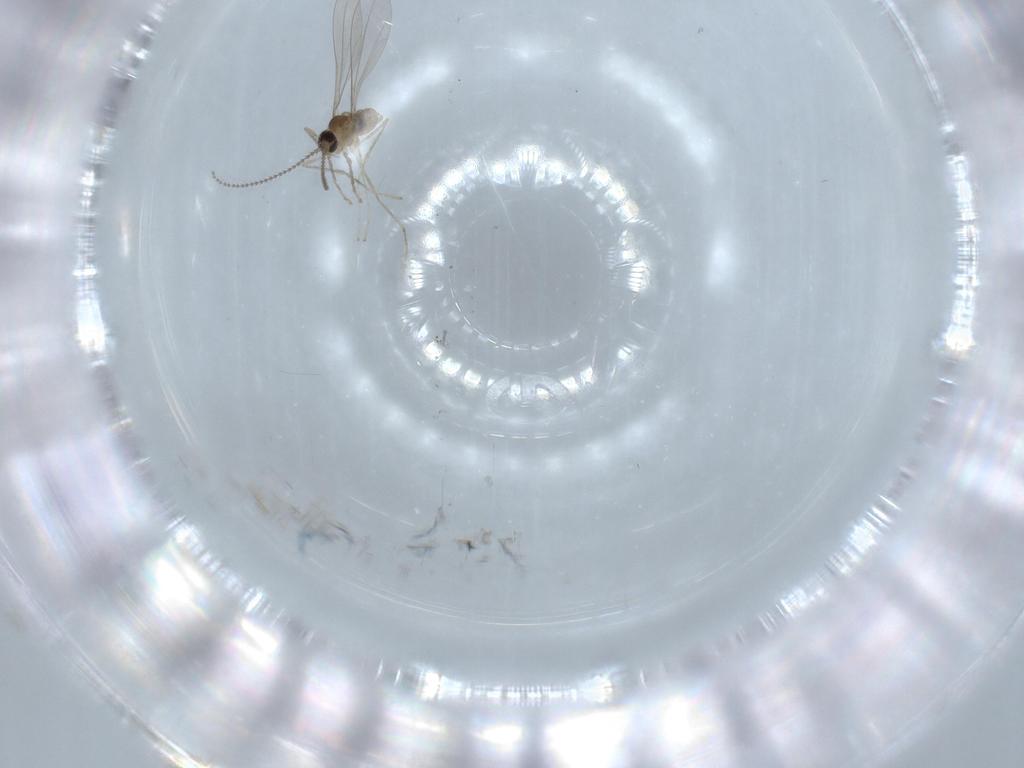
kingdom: Animalia
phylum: Arthropoda
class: Insecta
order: Diptera
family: Cecidomyiidae
